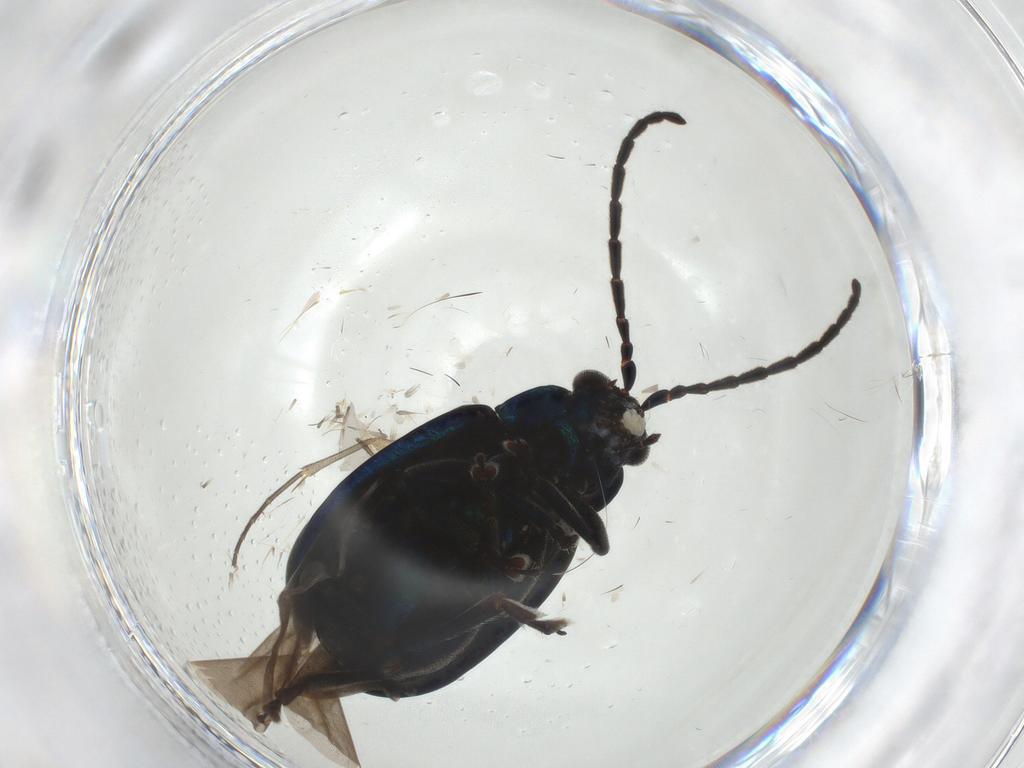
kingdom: Animalia
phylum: Arthropoda
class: Insecta
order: Coleoptera
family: Chrysomelidae
